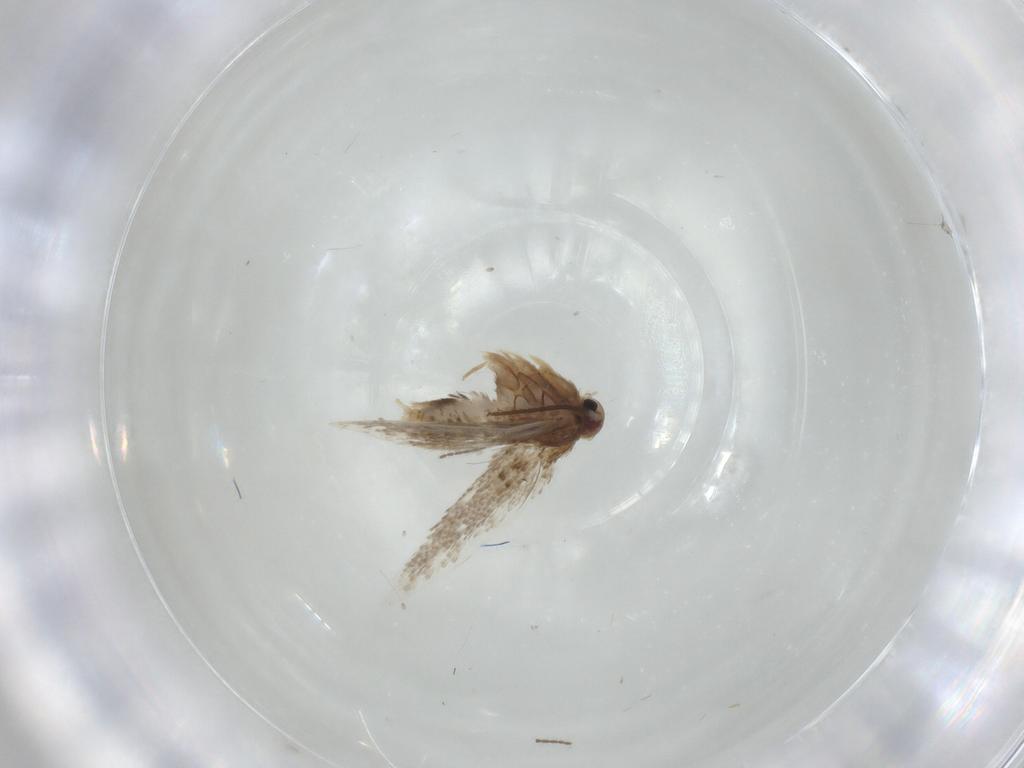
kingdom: Animalia
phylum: Arthropoda
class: Insecta
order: Lepidoptera
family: Psychidae
